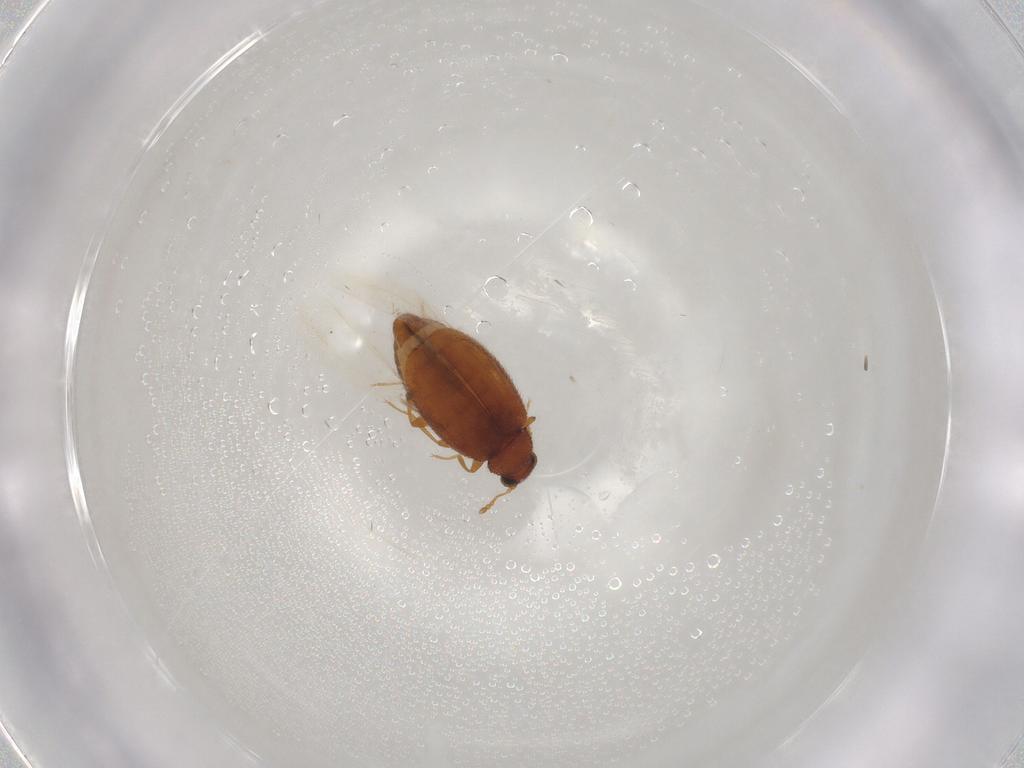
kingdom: Animalia
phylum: Arthropoda
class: Insecta
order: Coleoptera
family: Latridiidae
